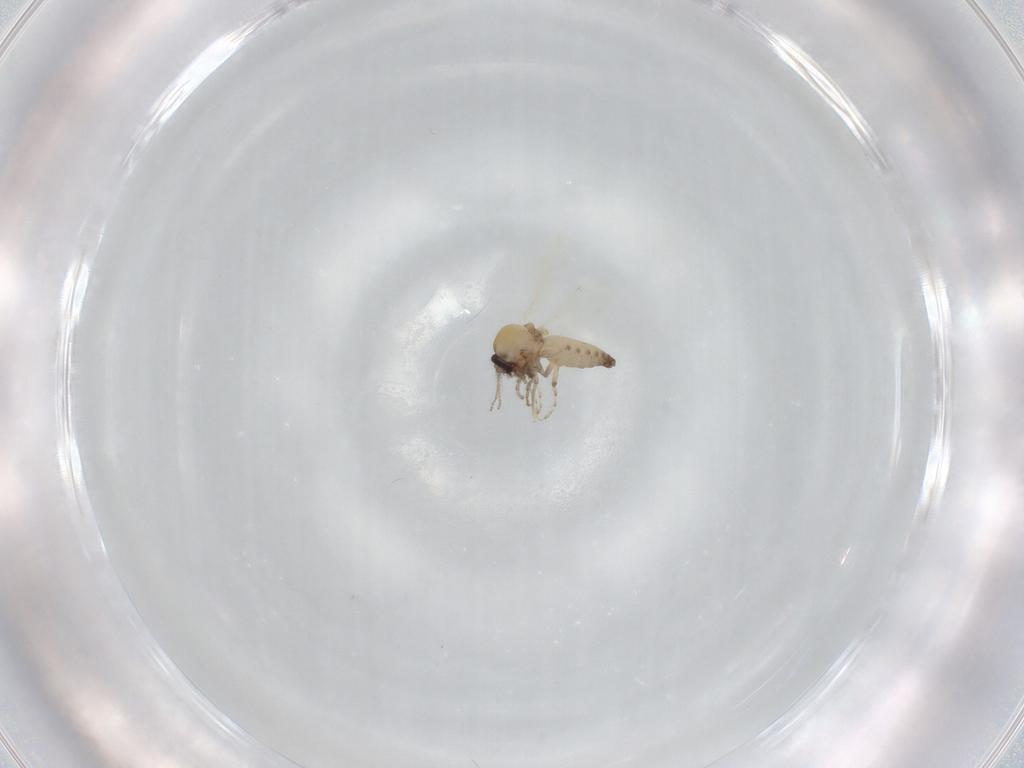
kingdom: Animalia
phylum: Arthropoda
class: Insecta
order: Diptera
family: Ceratopogonidae
